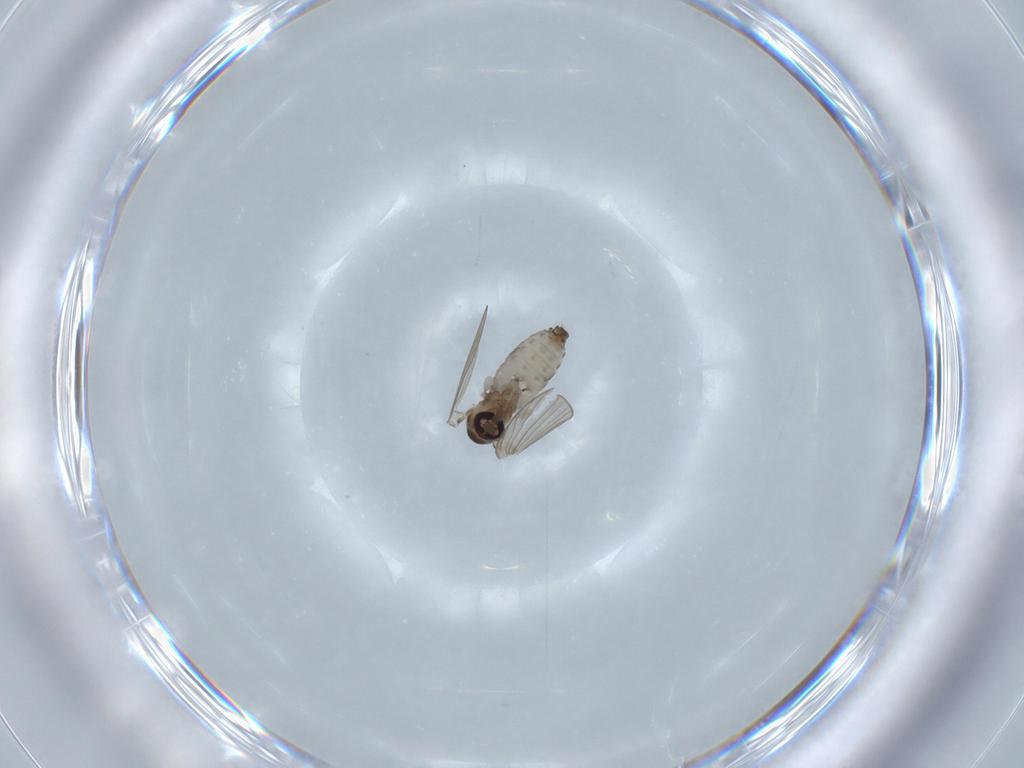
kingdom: Animalia
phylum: Arthropoda
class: Insecta
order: Diptera
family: Psychodidae
